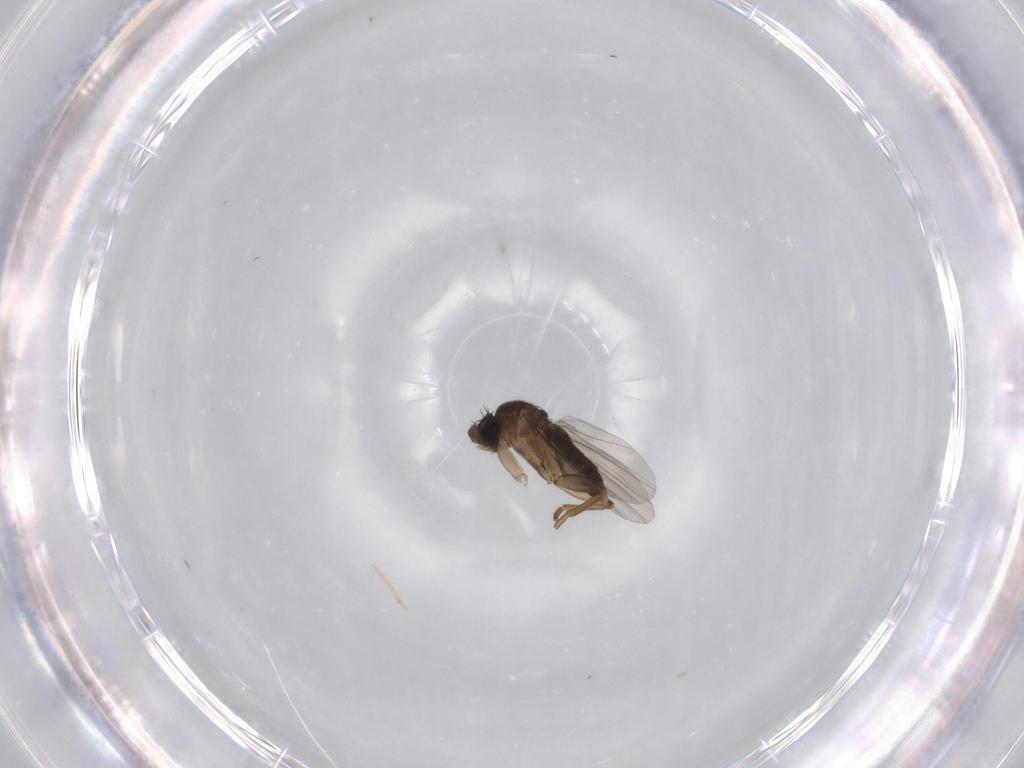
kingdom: Animalia
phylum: Arthropoda
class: Insecta
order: Diptera
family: Phoridae
